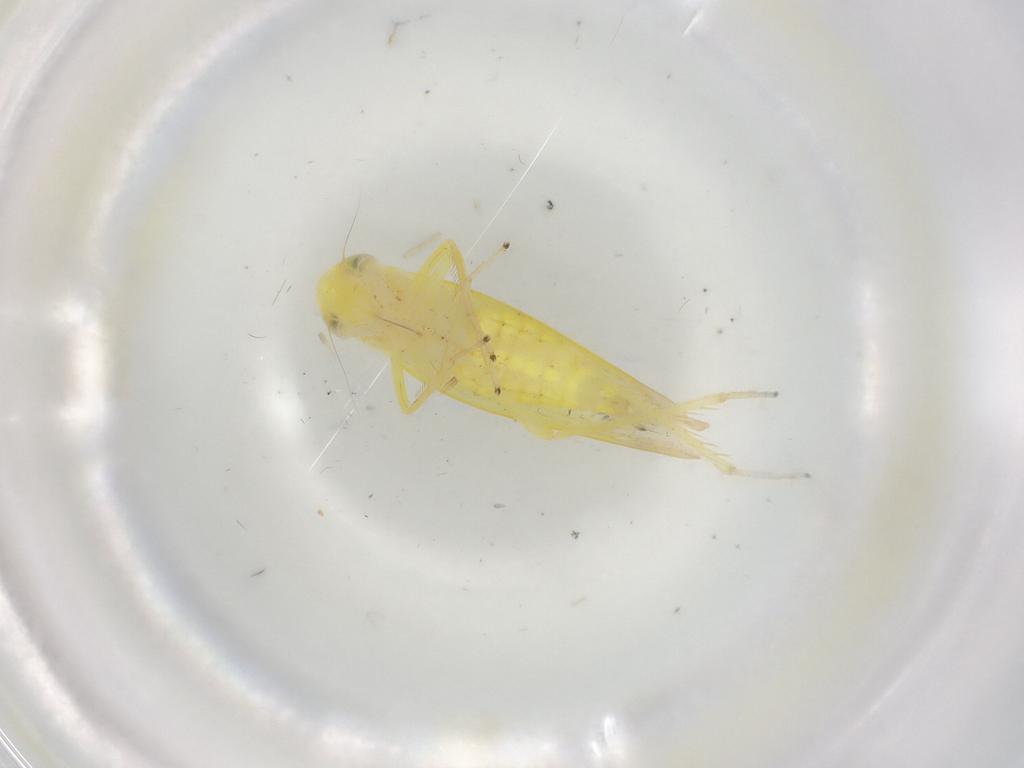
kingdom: Animalia
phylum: Arthropoda
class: Insecta
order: Hemiptera
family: Cicadellidae
